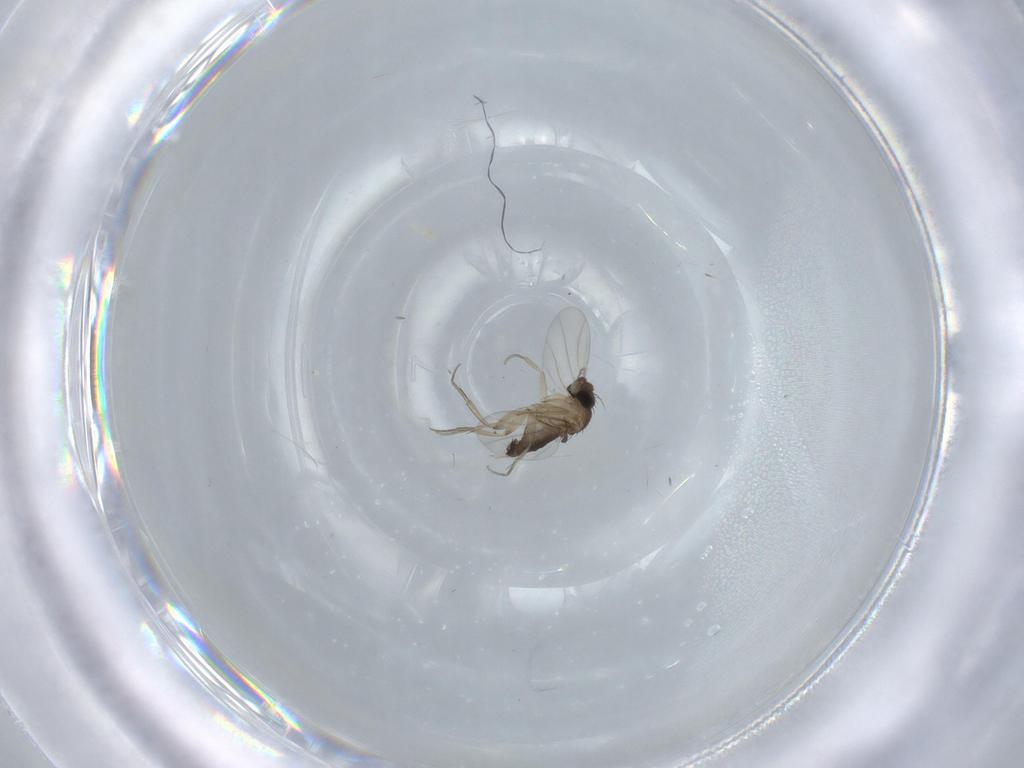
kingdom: Animalia
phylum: Arthropoda
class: Insecta
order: Diptera
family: Phoridae
